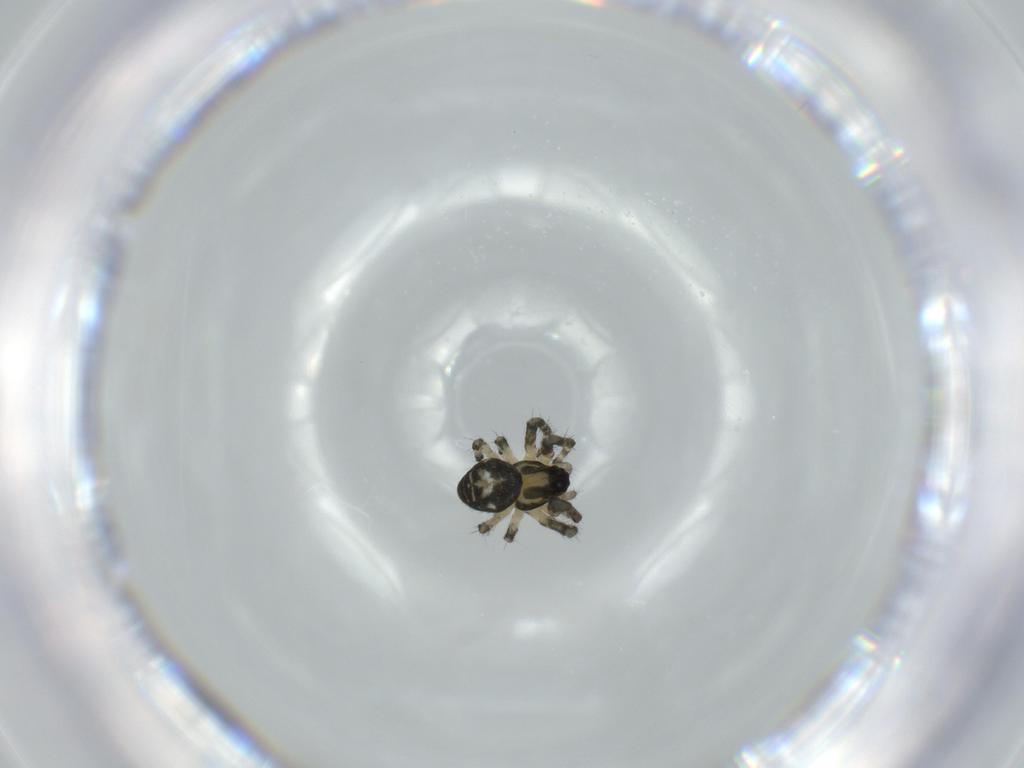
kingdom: Animalia
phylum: Arthropoda
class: Arachnida
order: Araneae
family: Nesticidae
